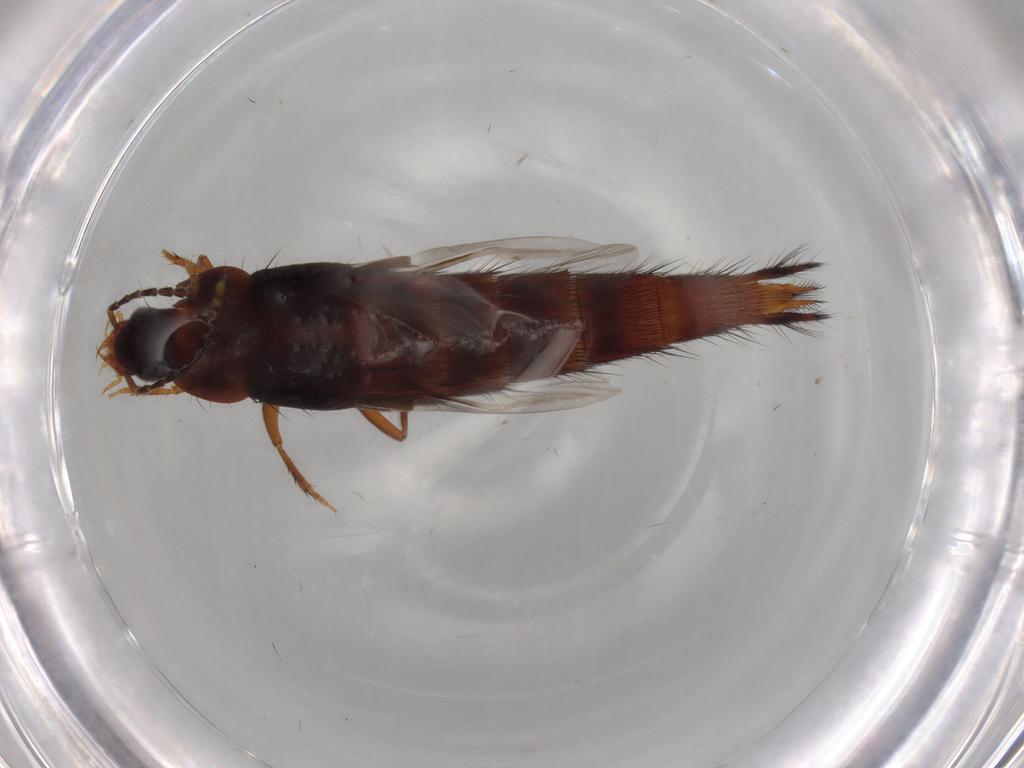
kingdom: Animalia
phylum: Arthropoda
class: Insecta
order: Coleoptera
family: Staphylinidae
